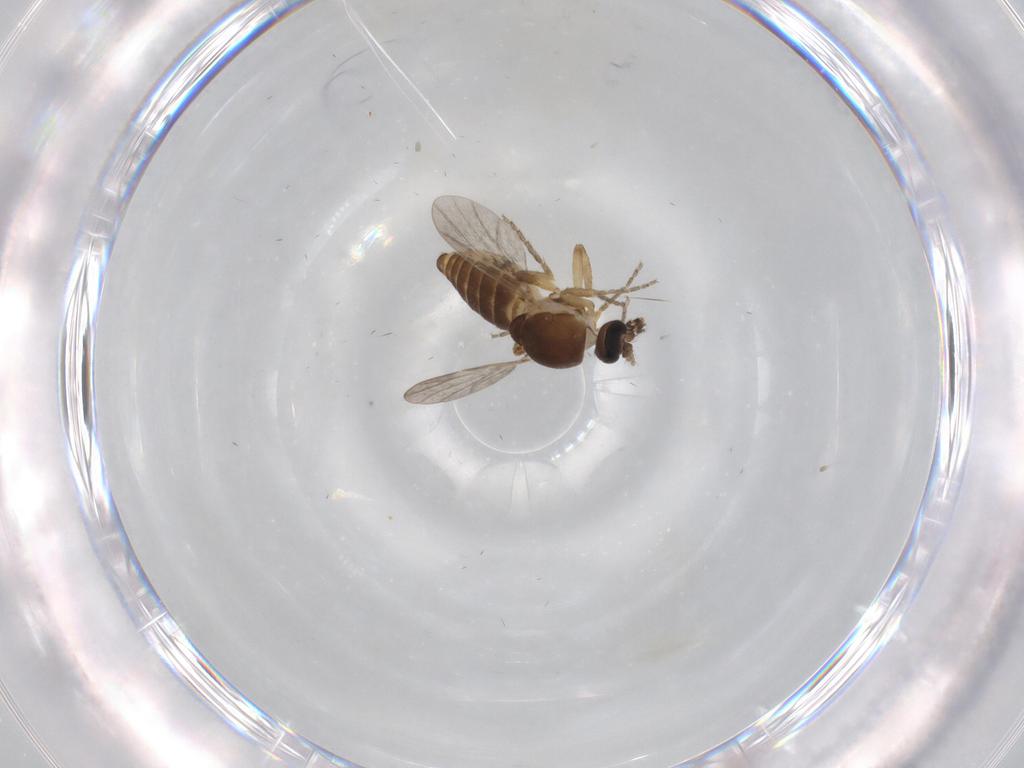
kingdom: Animalia
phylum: Arthropoda
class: Insecta
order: Diptera
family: Ceratopogonidae
